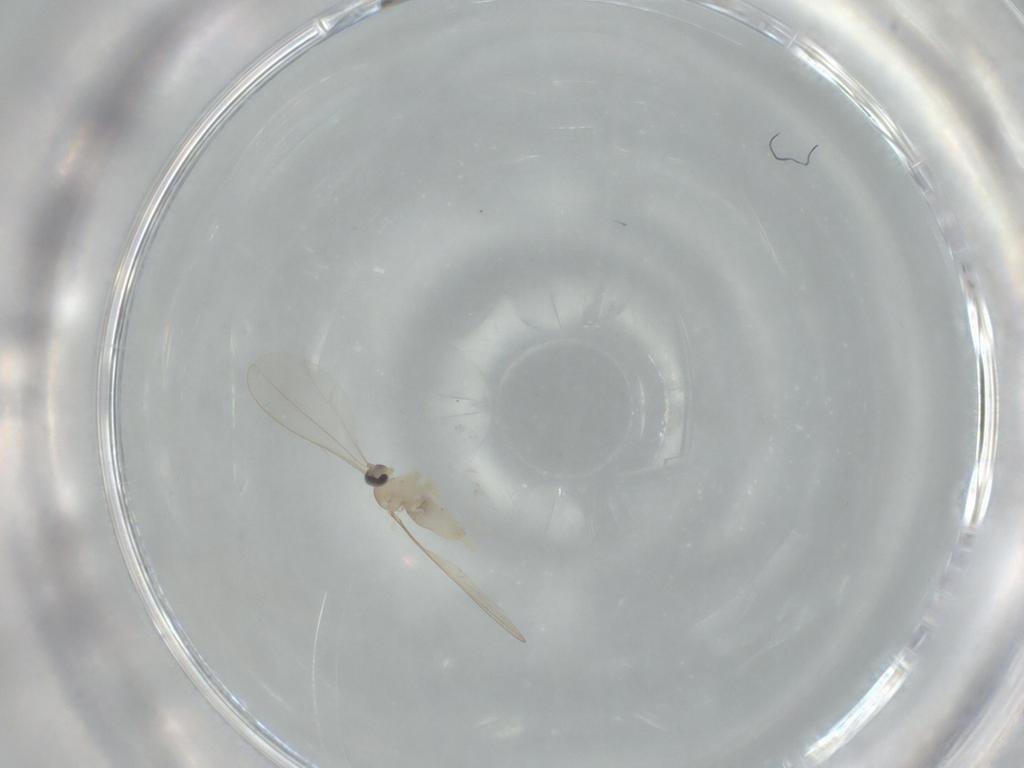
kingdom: Animalia
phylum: Arthropoda
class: Insecta
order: Diptera
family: Cecidomyiidae
